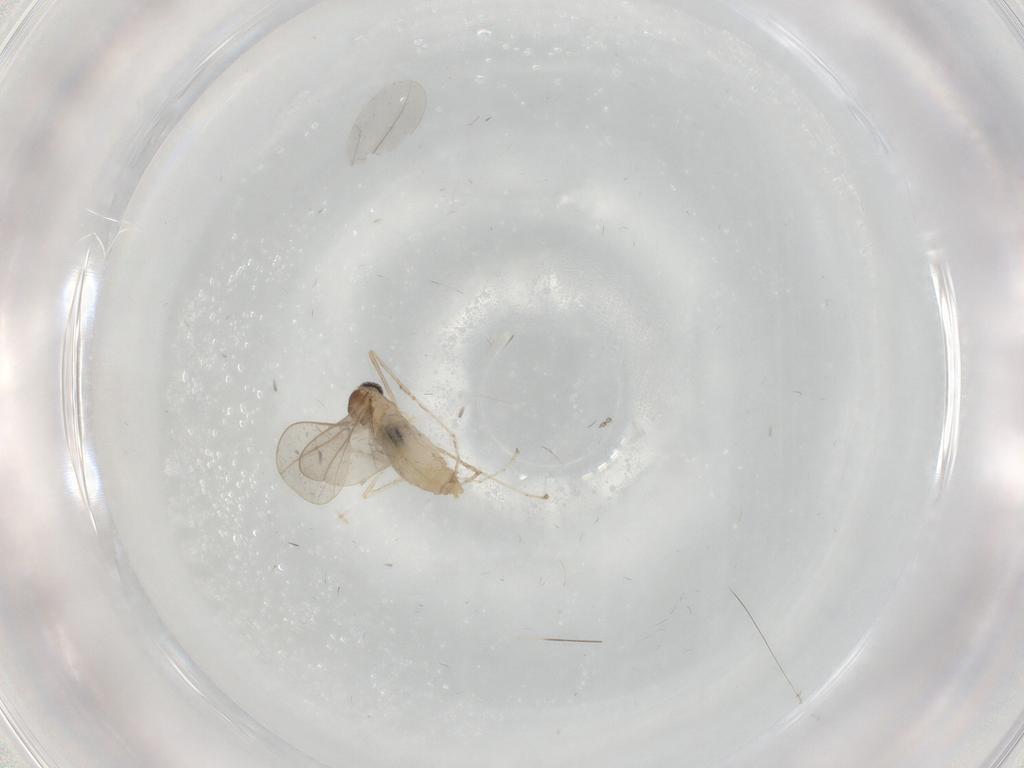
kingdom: Animalia
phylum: Arthropoda
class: Insecta
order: Diptera
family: Cecidomyiidae
